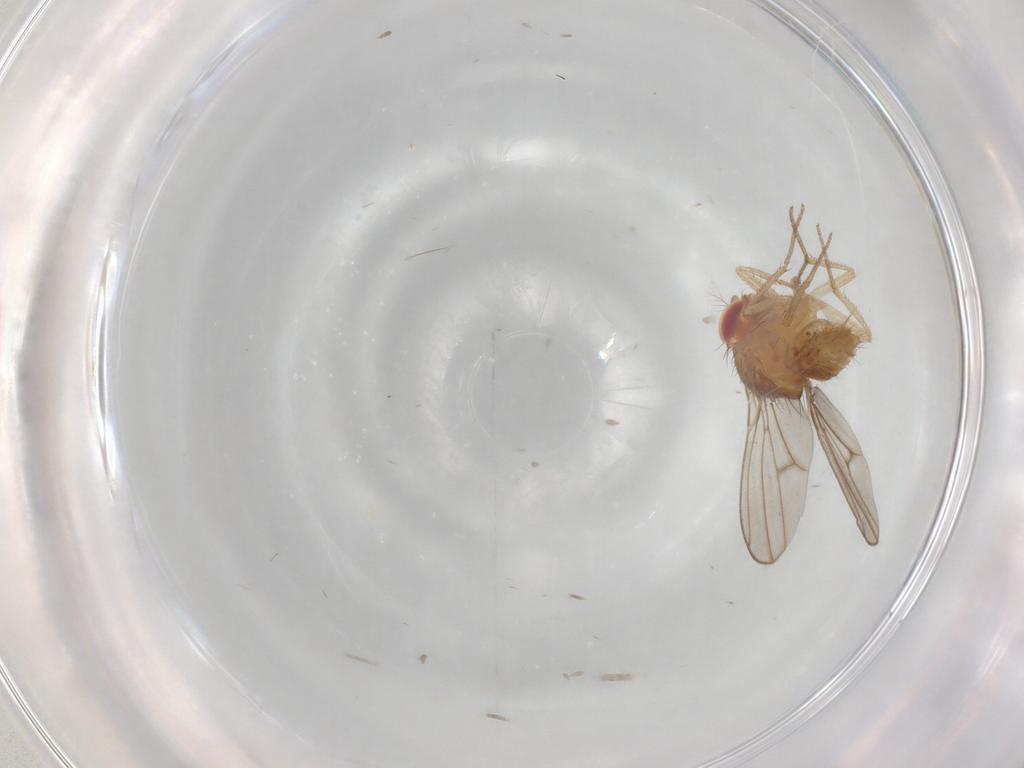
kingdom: Animalia
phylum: Arthropoda
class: Insecta
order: Diptera
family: Drosophilidae
